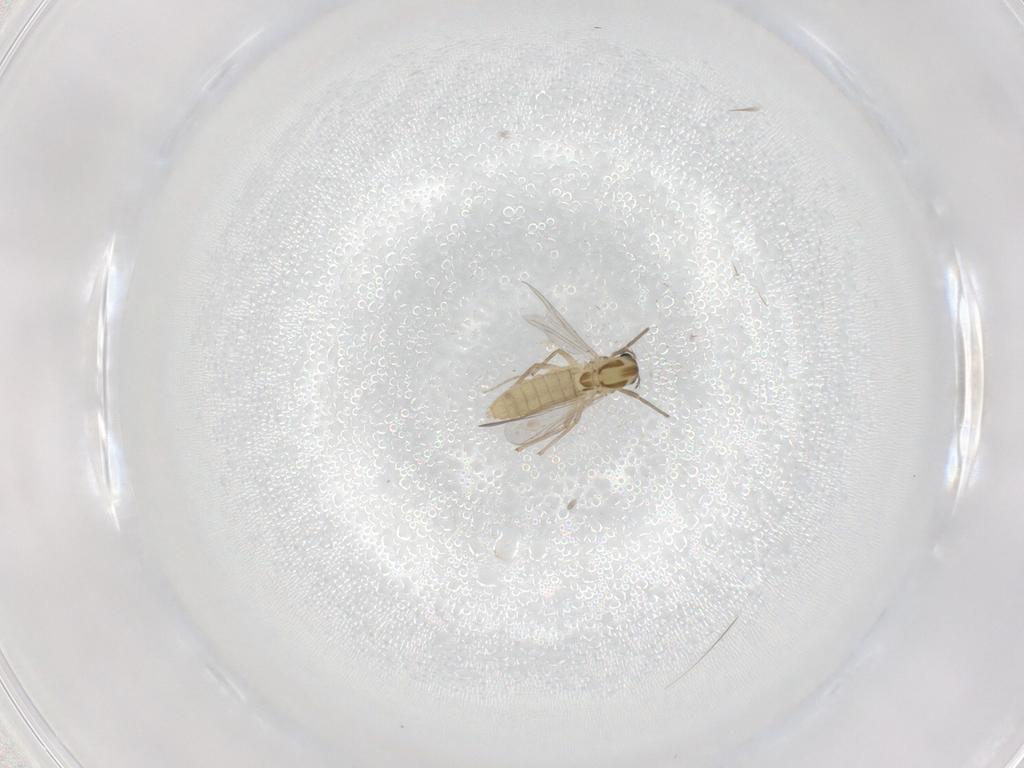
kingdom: Animalia
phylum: Arthropoda
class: Insecta
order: Diptera
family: Chironomidae
